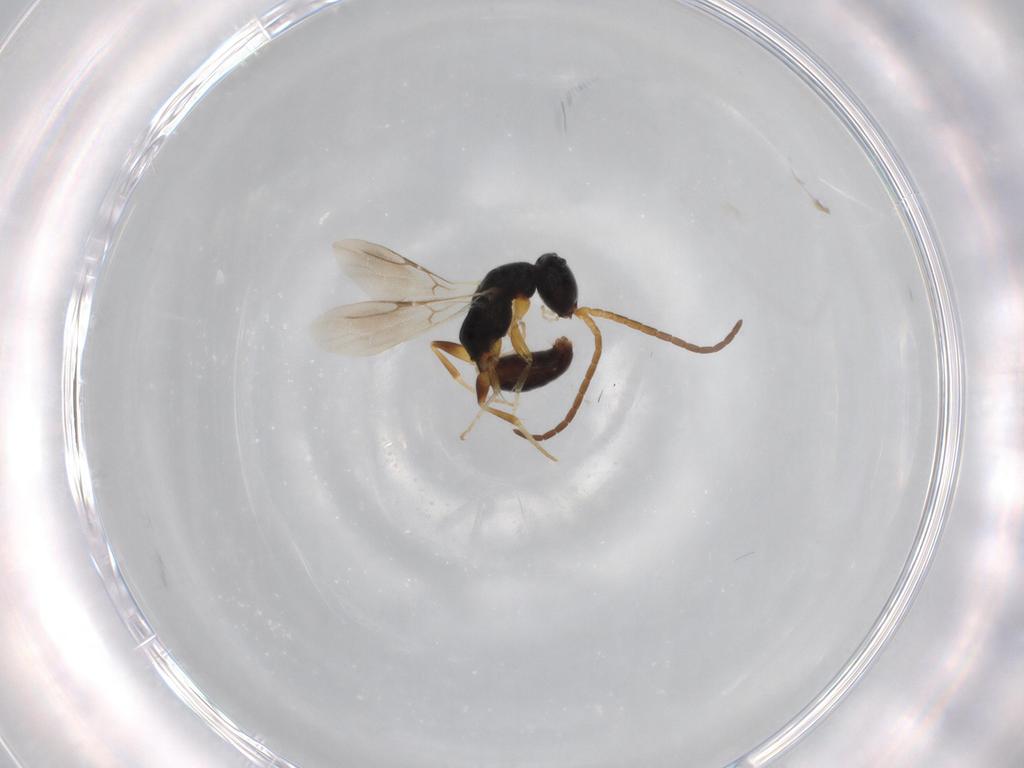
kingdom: Animalia
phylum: Arthropoda
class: Insecta
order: Hymenoptera
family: Bethylidae
